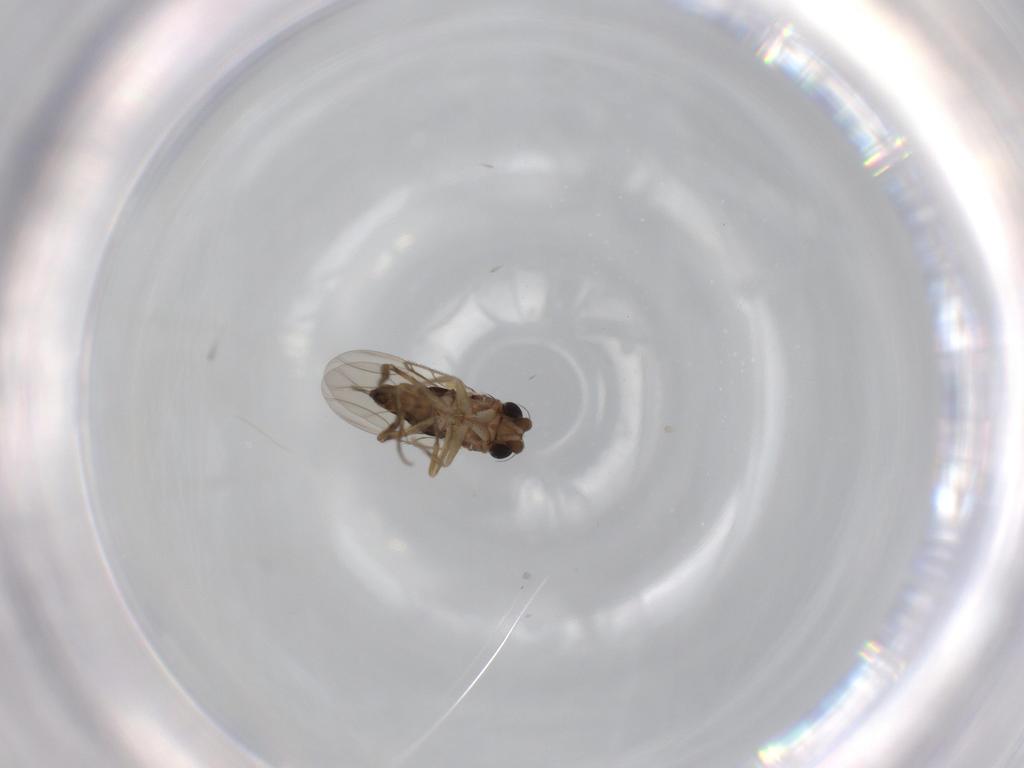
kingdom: Animalia
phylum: Arthropoda
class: Insecta
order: Diptera
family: Phoridae
